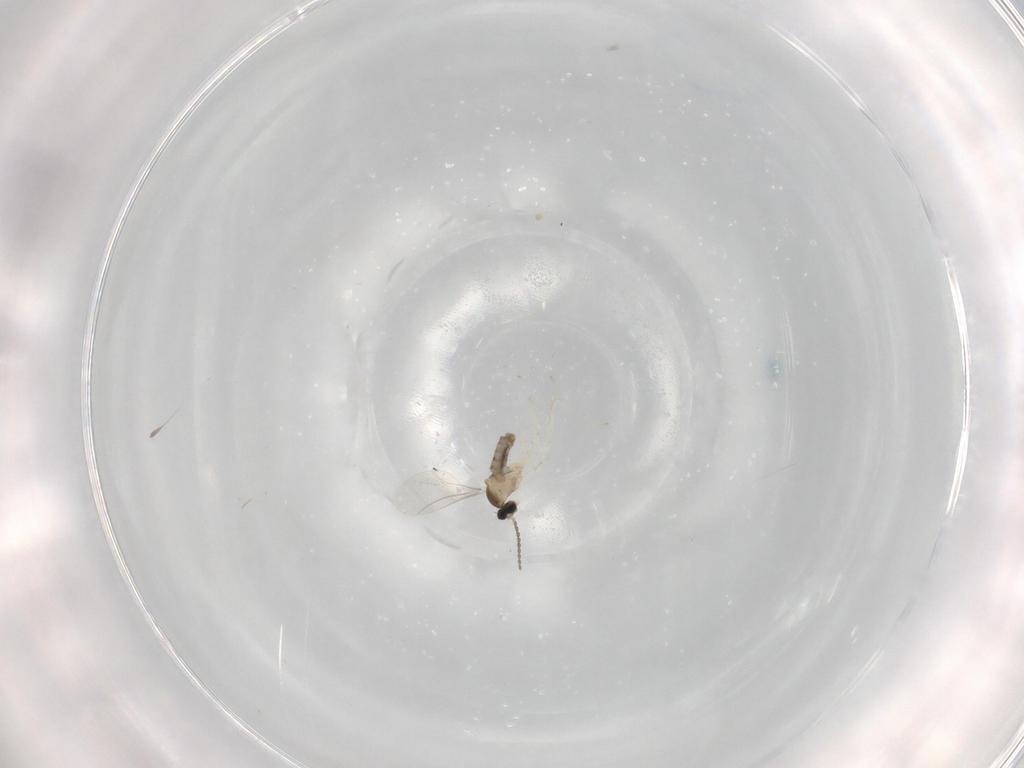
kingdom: Animalia
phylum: Arthropoda
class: Insecta
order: Diptera
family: Cecidomyiidae
